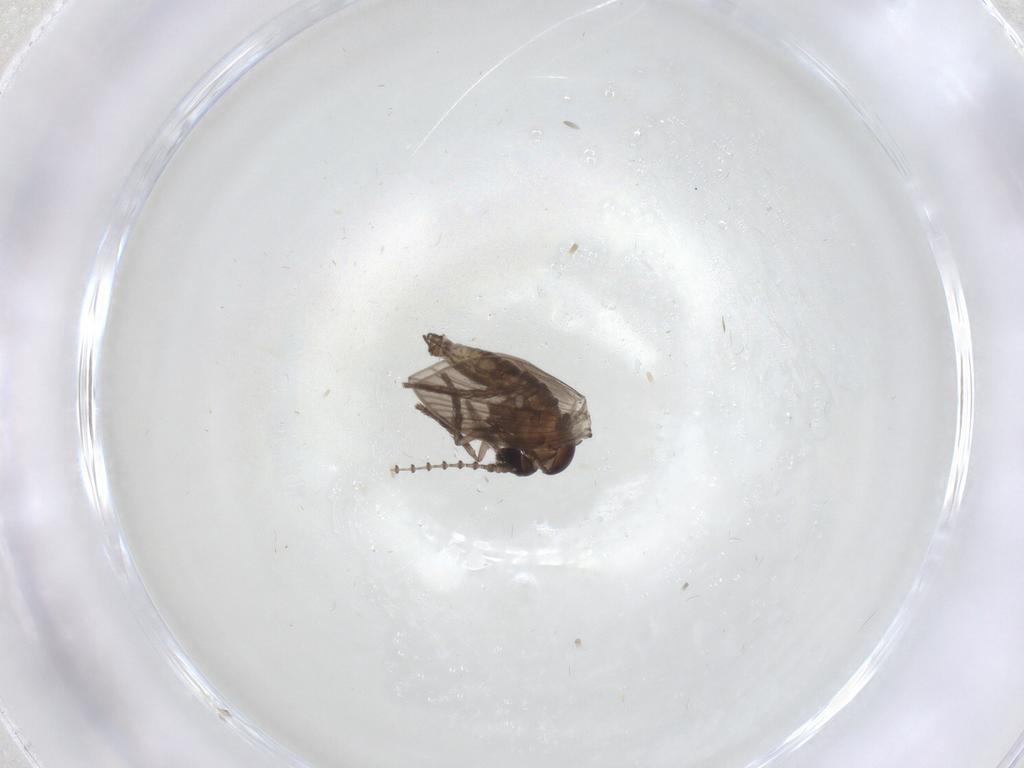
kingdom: Animalia
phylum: Arthropoda
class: Insecta
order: Diptera
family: Psychodidae
